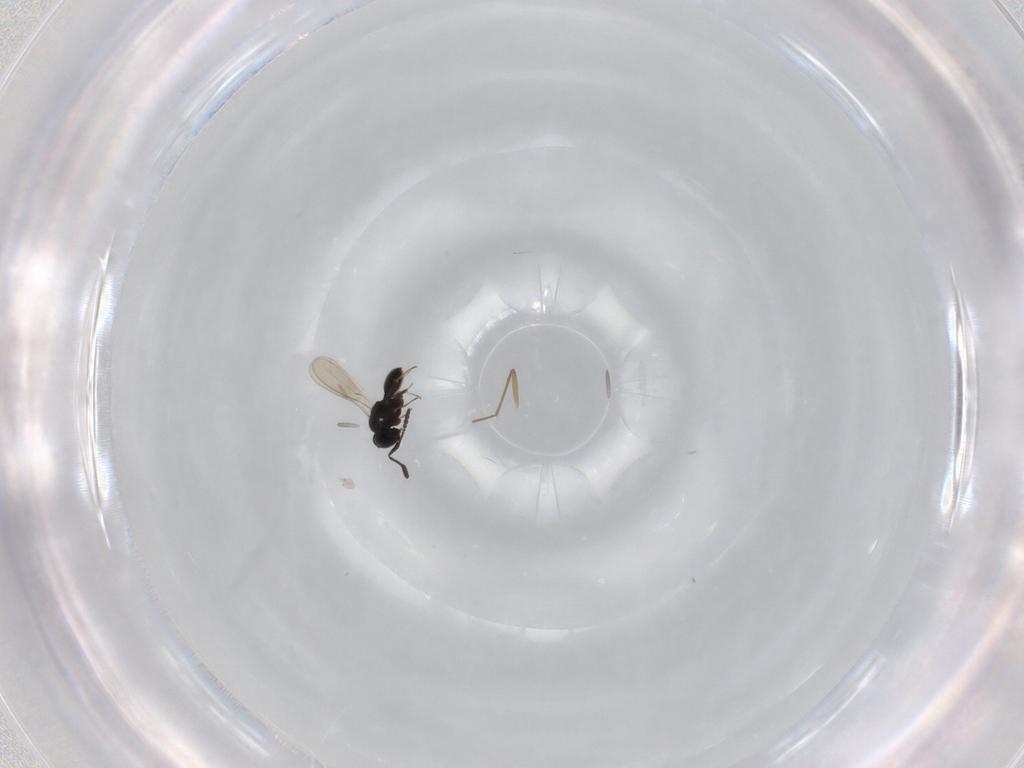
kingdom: Animalia
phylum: Arthropoda
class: Insecta
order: Hymenoptera
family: Scelionidae
